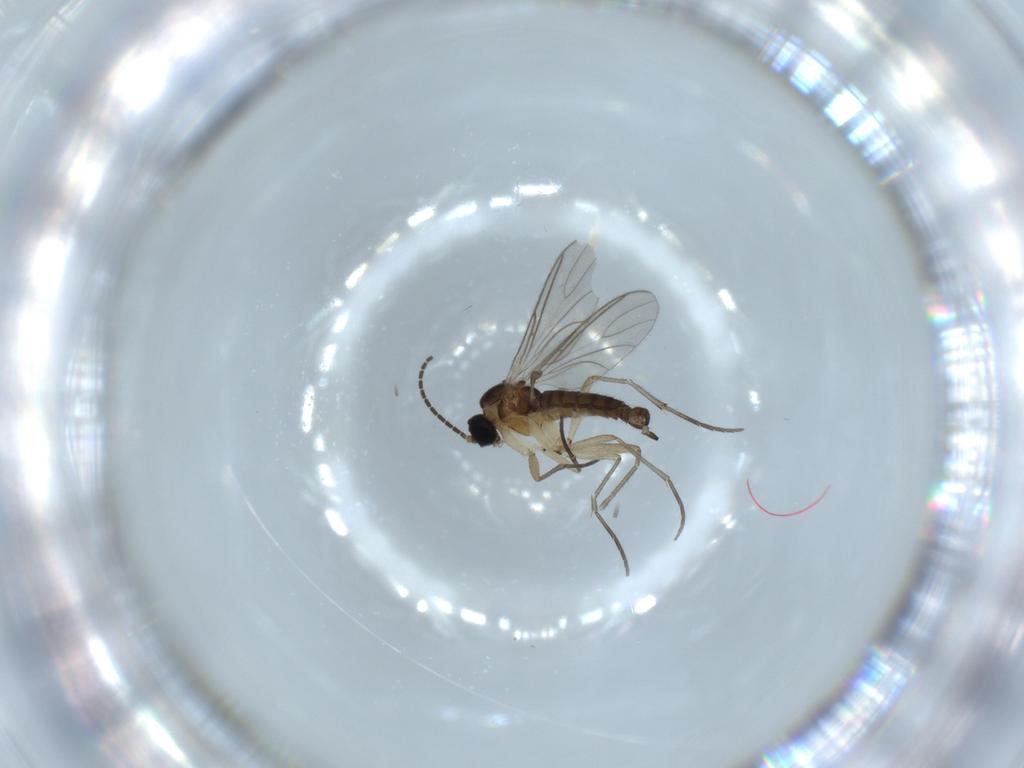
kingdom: Animalia
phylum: Arthropoda
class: Insecta
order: Diptera
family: Sciaridae
